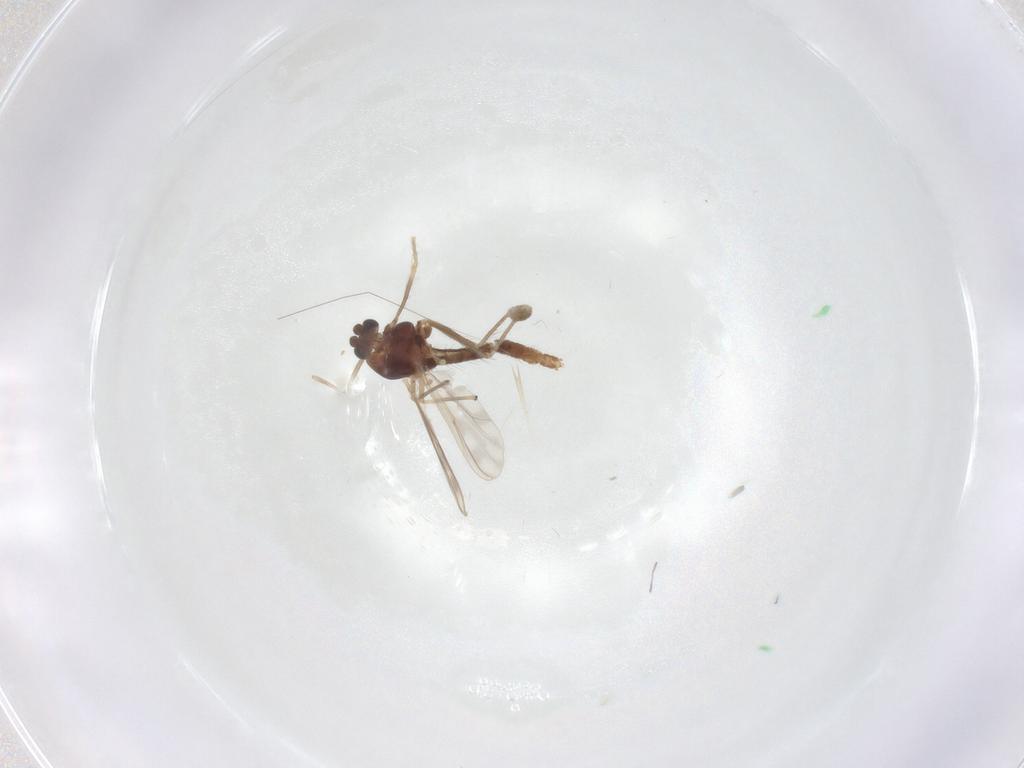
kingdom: Animalia
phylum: Arthropoda
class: Insecta
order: Diptera
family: Chironomidae
